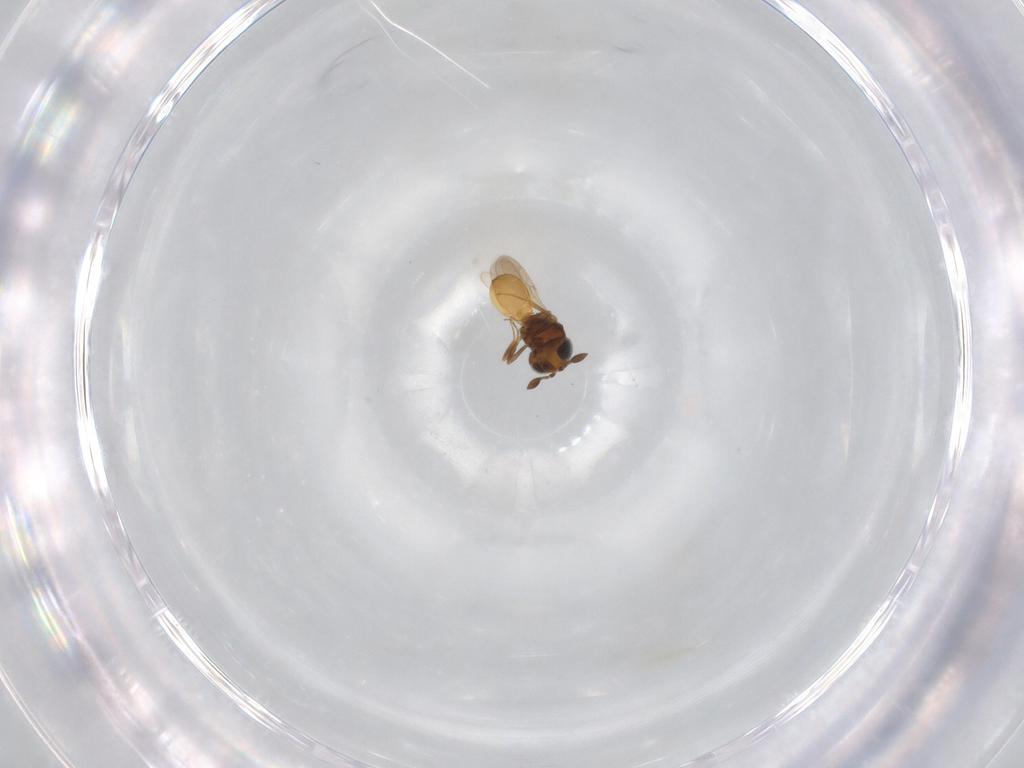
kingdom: Animalia
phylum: Arthropoda
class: Insecta
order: Hymenoptera
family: Scelionidae
